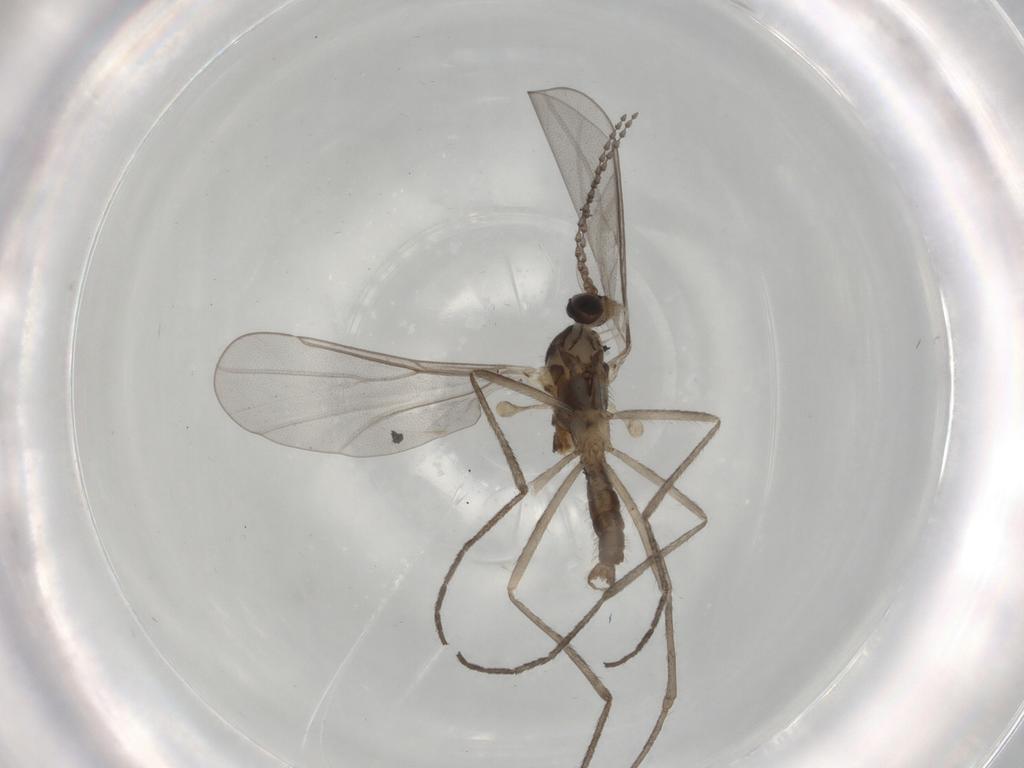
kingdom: Animalia
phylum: Arthropoda
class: Insecta
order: Diptera
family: Cecidomyiidae
